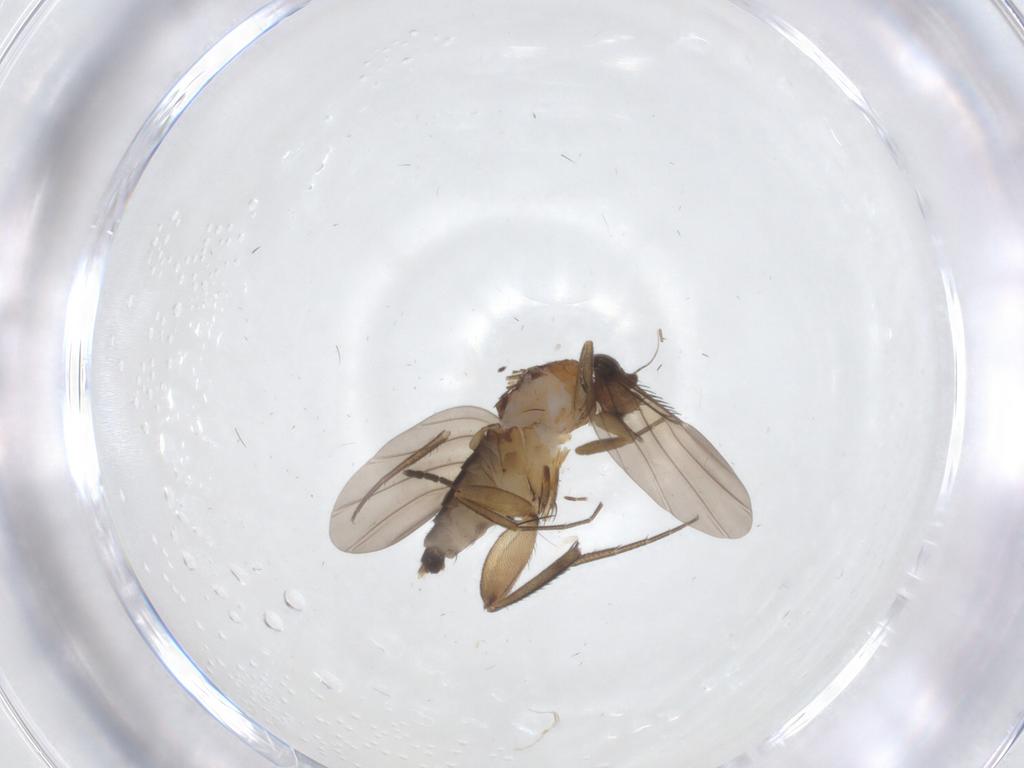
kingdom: Animalia
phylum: Arthropoda
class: Insecta
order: Diptera
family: Phoridae
